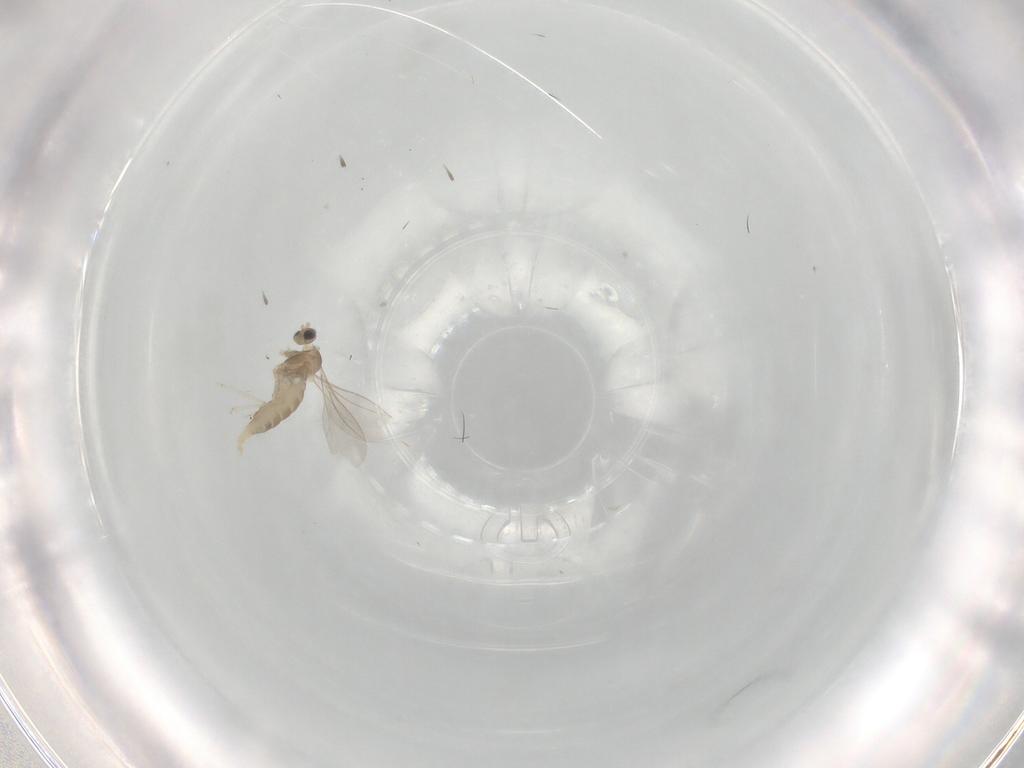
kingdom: Animalia
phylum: Arthropoda
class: Insecta
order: Diptera
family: Cecidomyiidae
